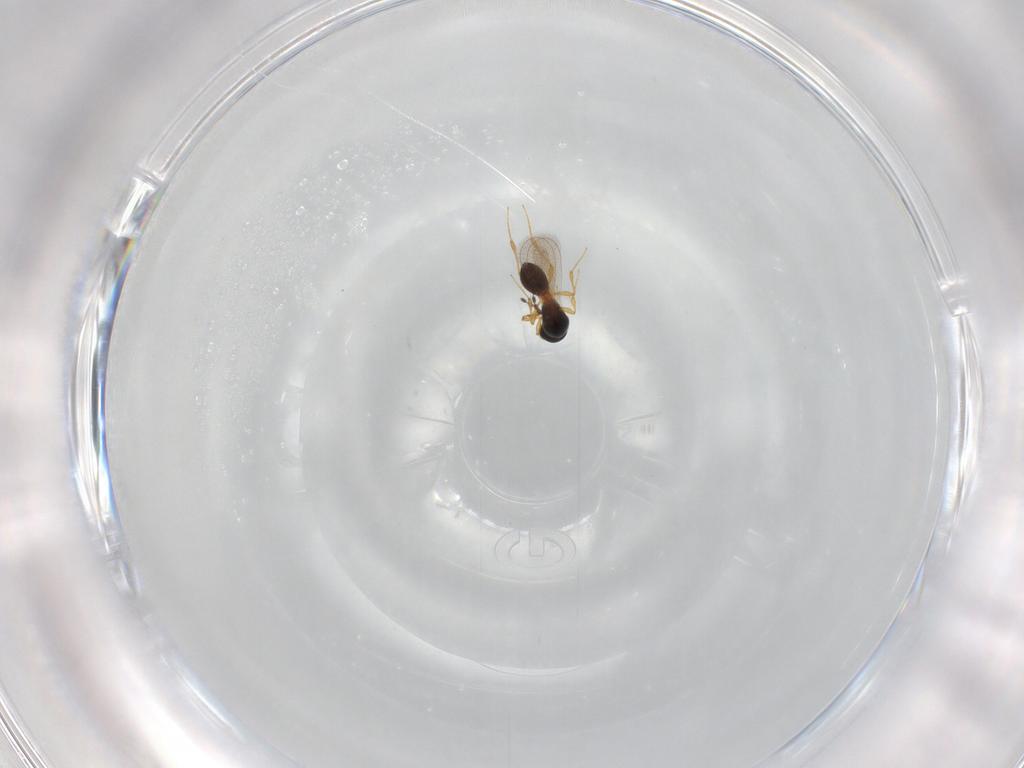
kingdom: Animalia
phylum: Arthropoda
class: Insecta
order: Hymenoptera
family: Platygastridae
